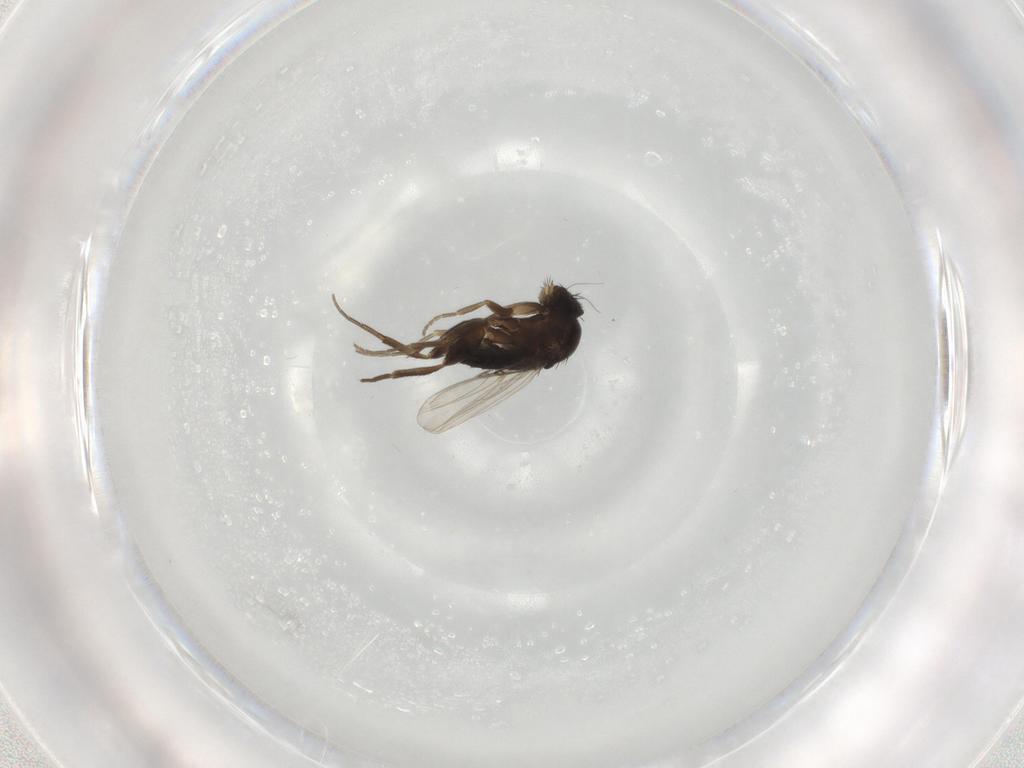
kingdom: Animalia
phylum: Arthropoda
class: Insecta
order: Diptera
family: Phoridae
